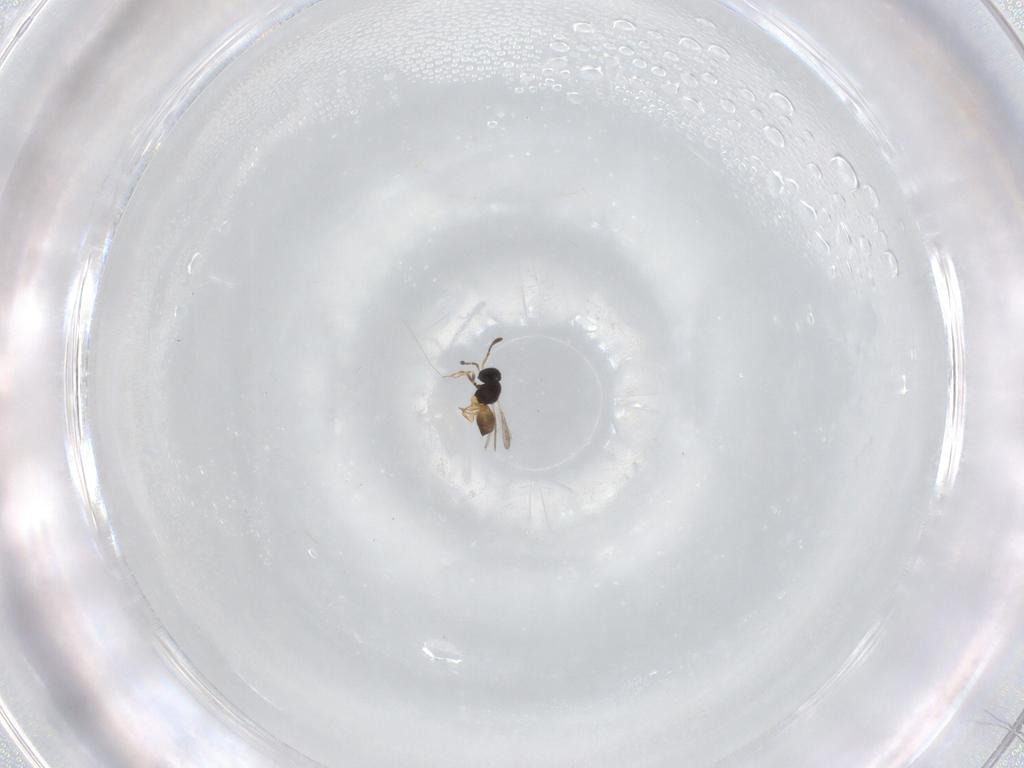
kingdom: Animalia
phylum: Arthropoda
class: Insecta
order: Hymenoptera
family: Scelionidae
